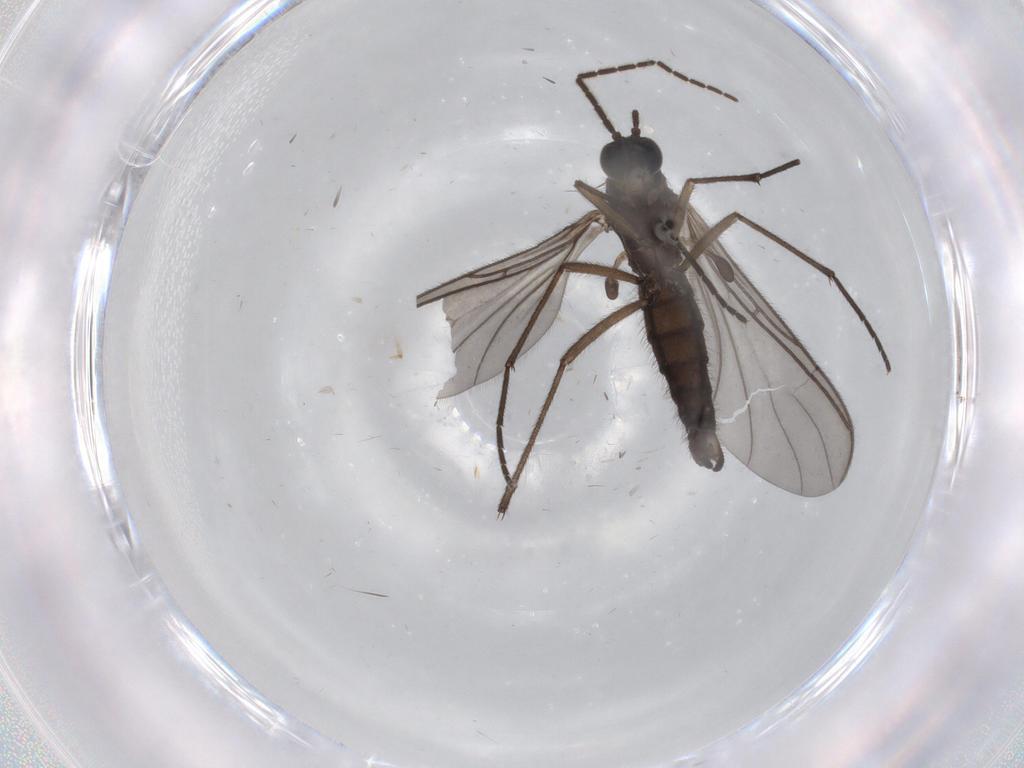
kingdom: Animalia
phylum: Arthropoda
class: Insecta
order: Diptera
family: Sciaridae
